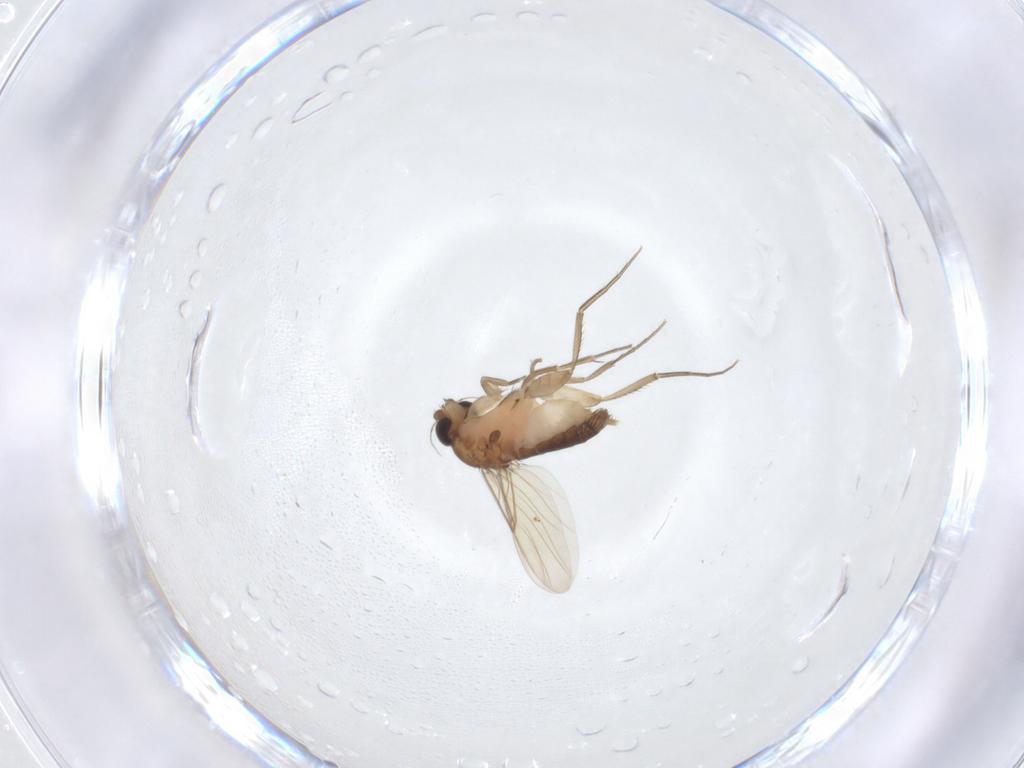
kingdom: Animalia
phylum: Arthropoda
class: Insecta
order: Diptera
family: Phoridae
